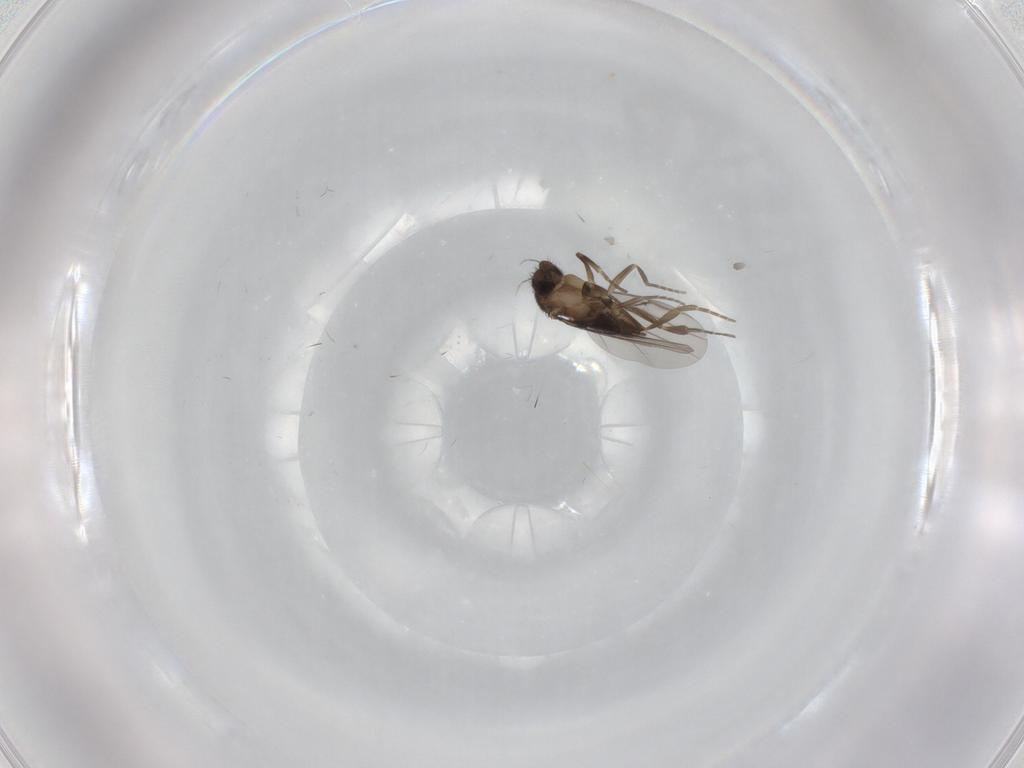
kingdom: Animalia
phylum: Arthropoda
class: Insecta
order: Diptera
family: Phoridae
